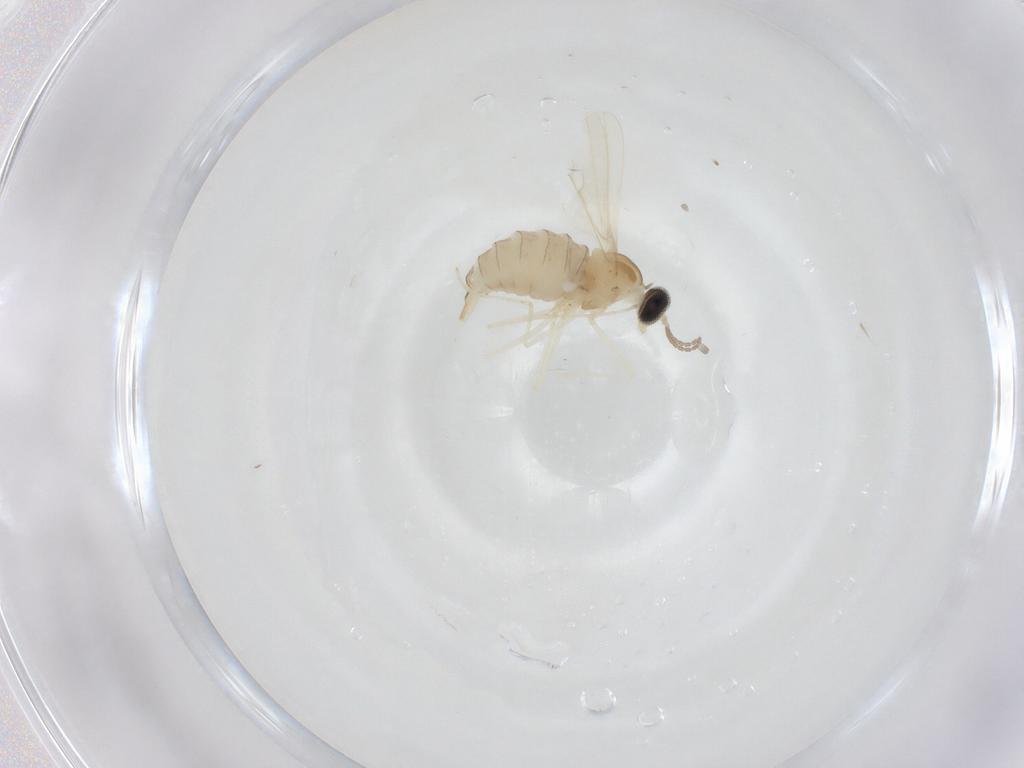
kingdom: Animalia
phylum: Arthropoda
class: Insecta
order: Diptera
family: Cecidomyiidae
